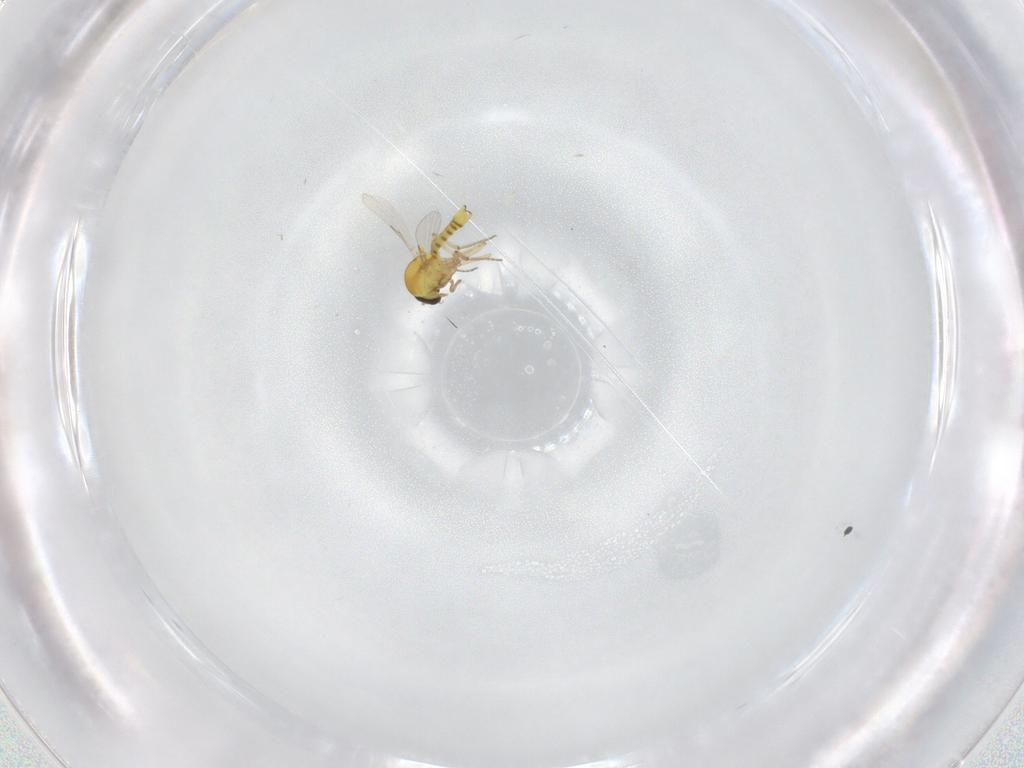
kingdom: Animalia
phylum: Arthropoda
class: Insecta
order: Diptera
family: Ceratopogonidae
